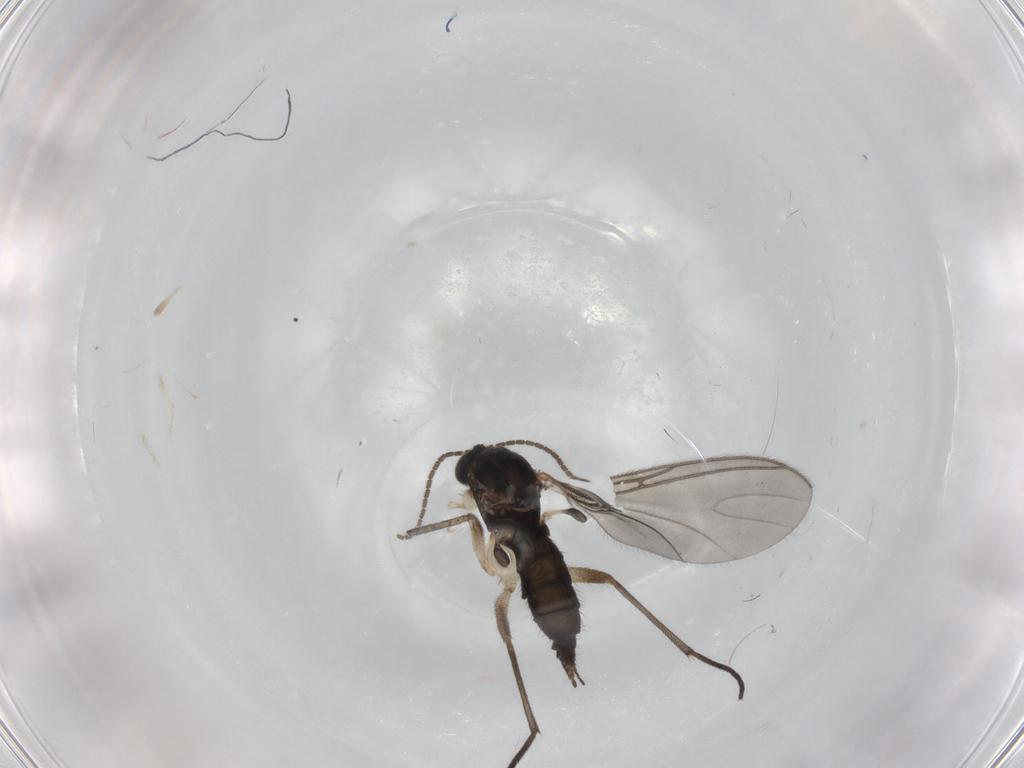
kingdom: Animalia
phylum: Arthropoda
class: Insecta
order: Diptera
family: Sciaridae
